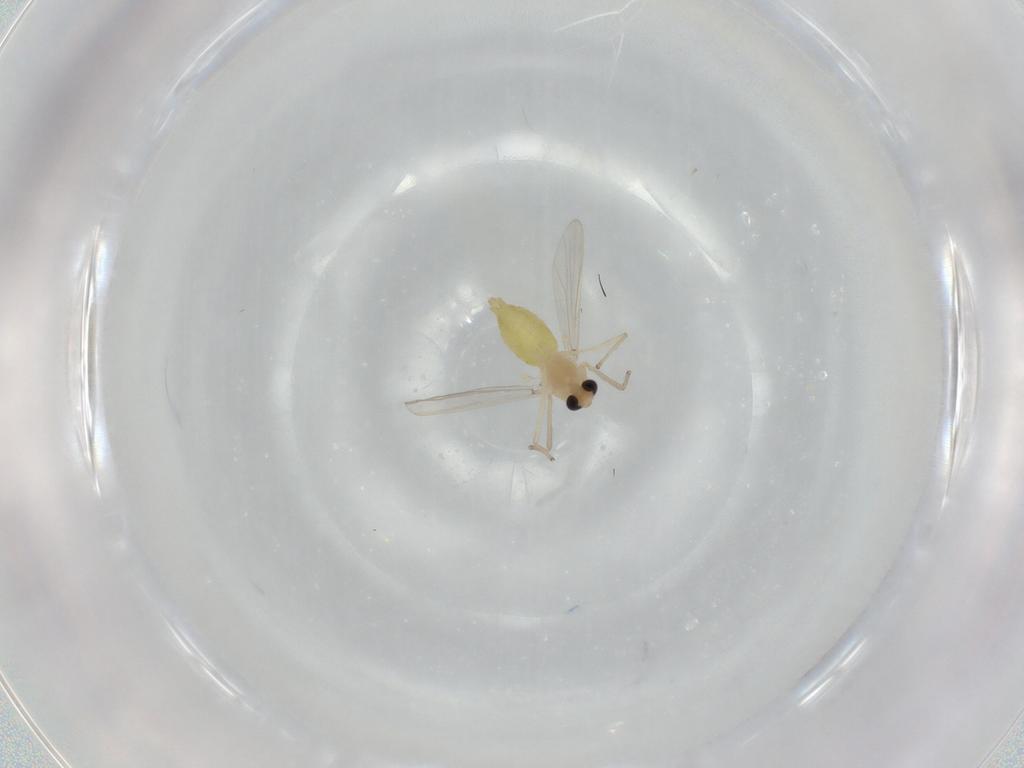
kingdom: Animalia
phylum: Arthropoda
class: Insecta
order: Diptera
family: Chironomidae
